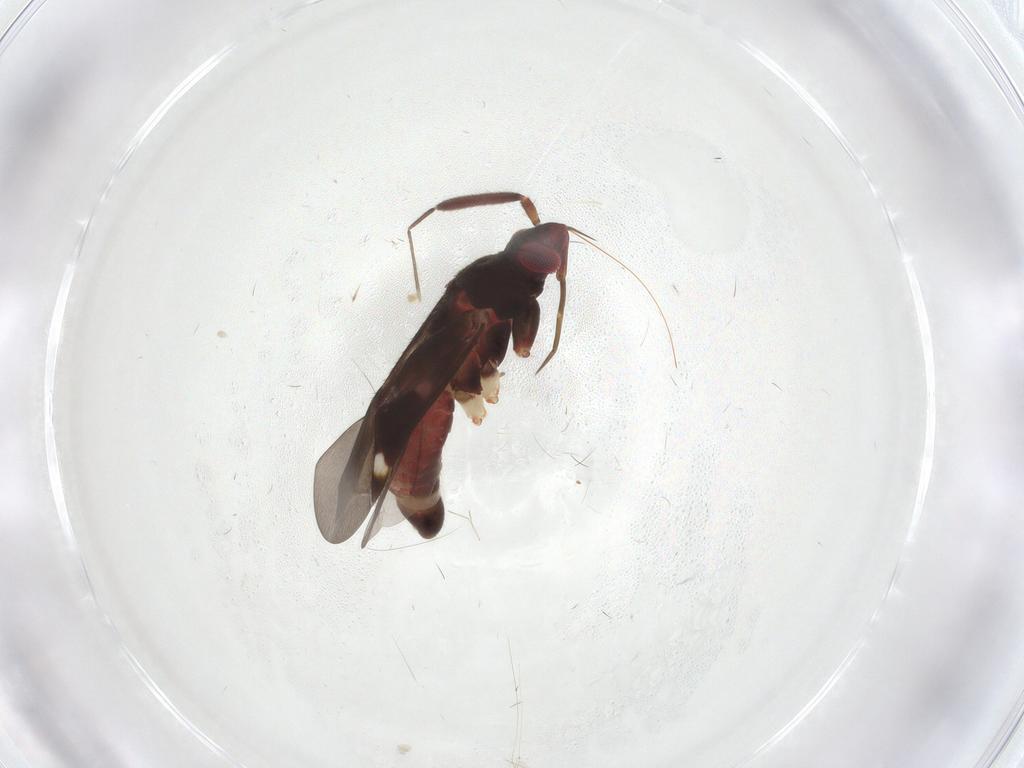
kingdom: Animalia
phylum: Arthropoda
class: Insecta
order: Hemiptera
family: Miridae
